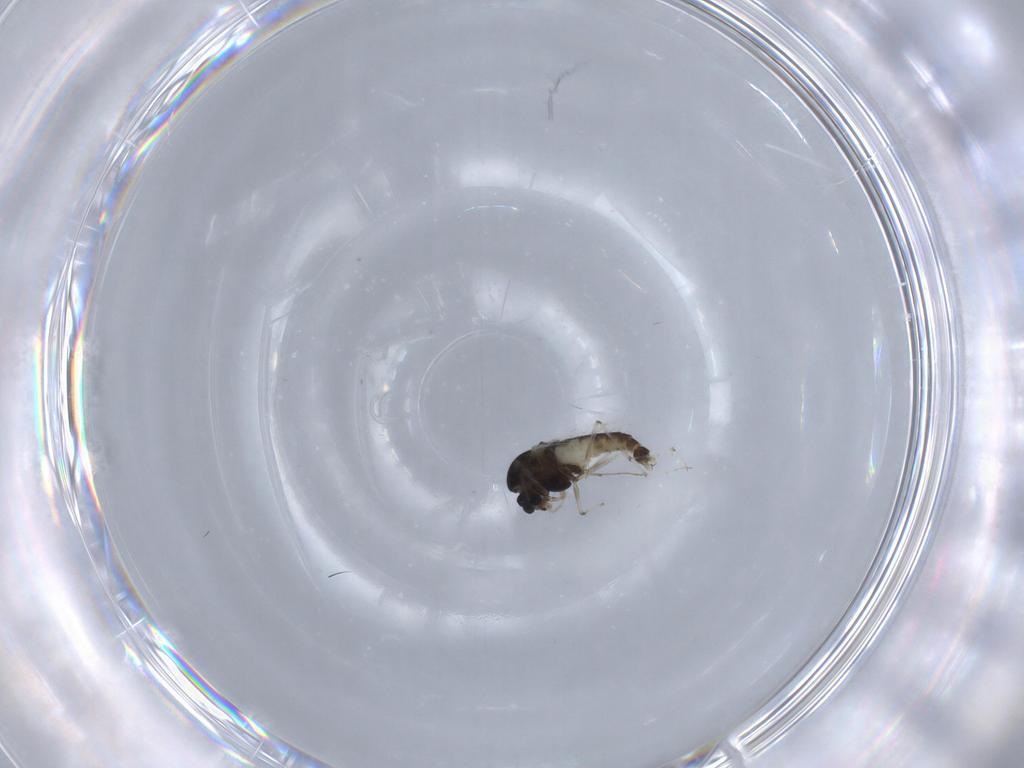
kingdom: Animalia
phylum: Arthropoda
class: Insecta
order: Diptera
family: Chironomidae
